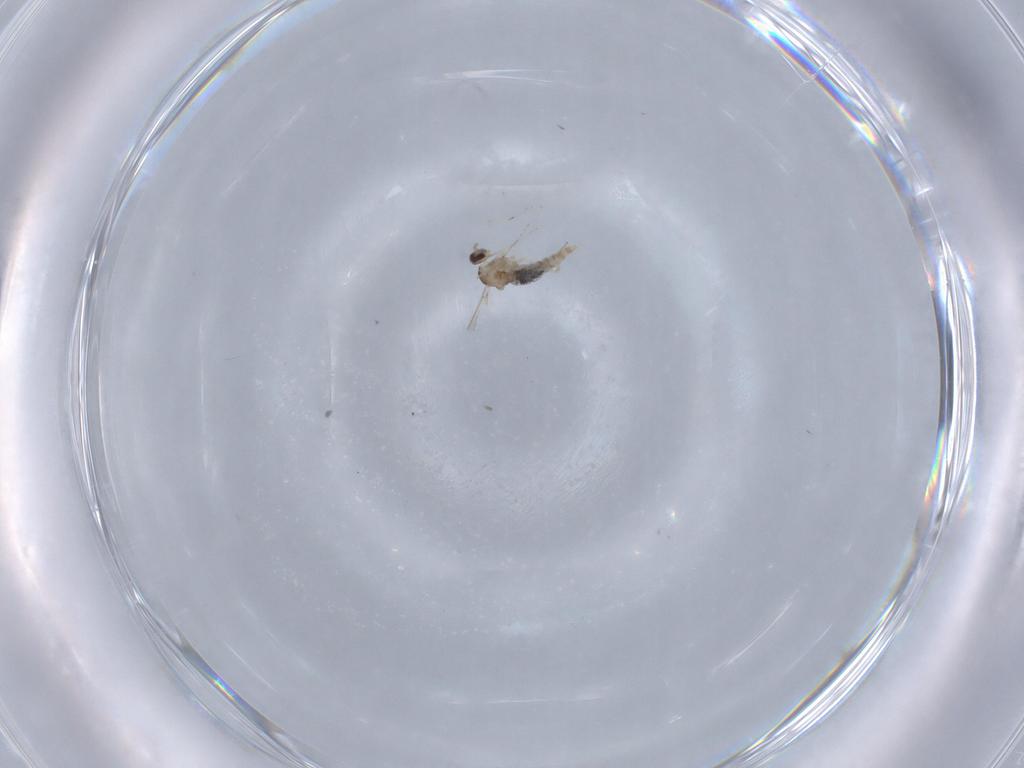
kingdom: Animalia
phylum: Arthropoda
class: Insecta
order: Diptera
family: Cecidomyiidae
